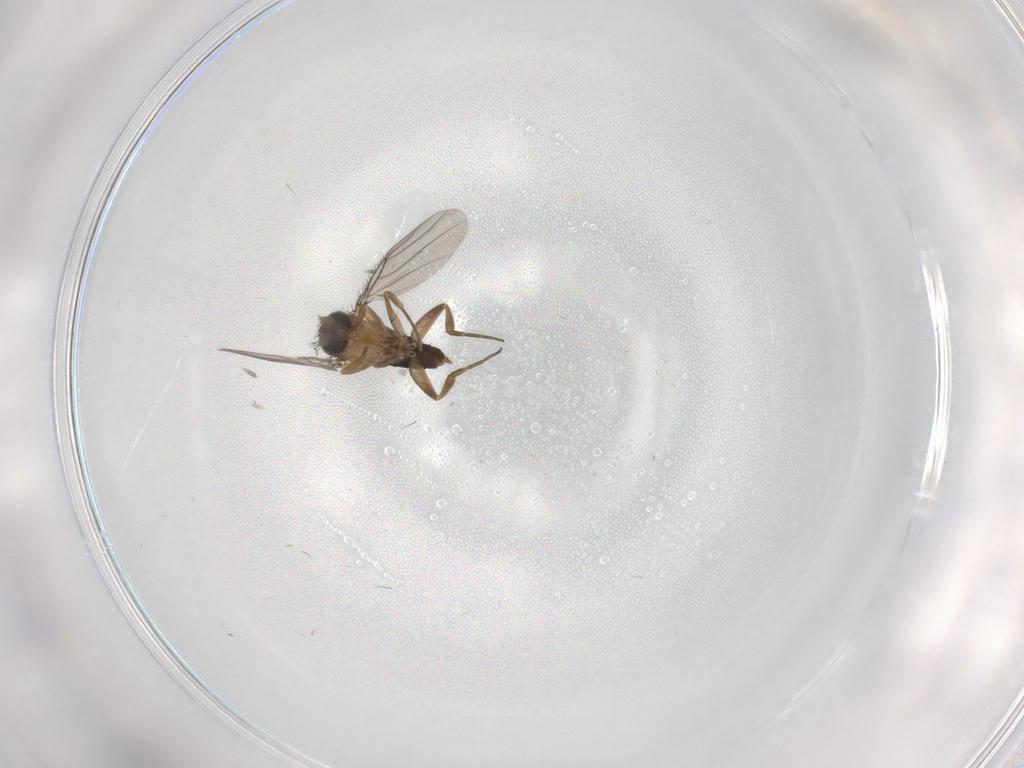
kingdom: Animalia
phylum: Arthropoda
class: Insecta
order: Diptera
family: Phoridae
